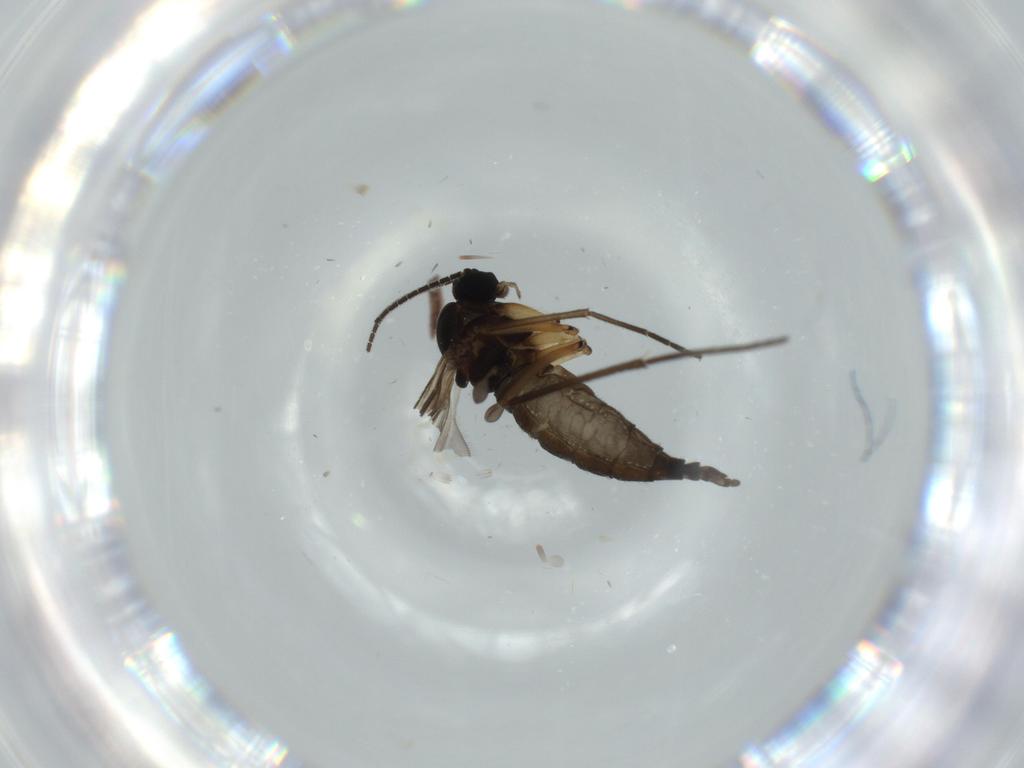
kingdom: Animalia
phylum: Arthropoda
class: Insecta
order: Diptera
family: Sciaridae
